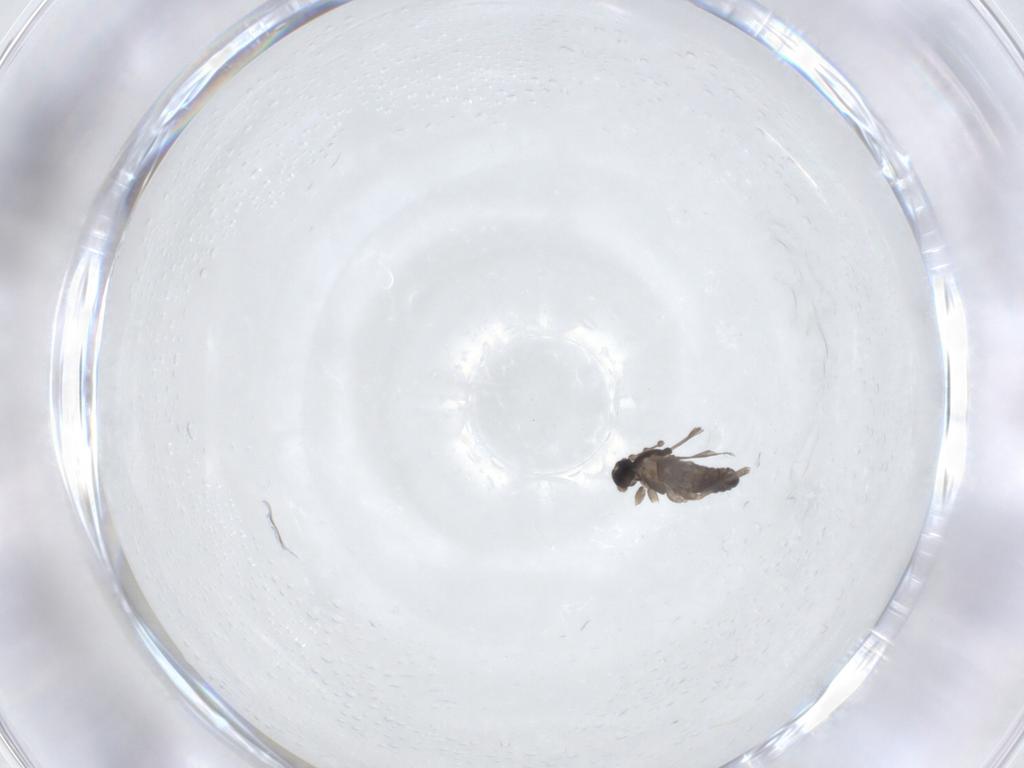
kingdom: Animalia
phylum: Arthropoda
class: Insecta
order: Diptera
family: Cecidomyiidae
